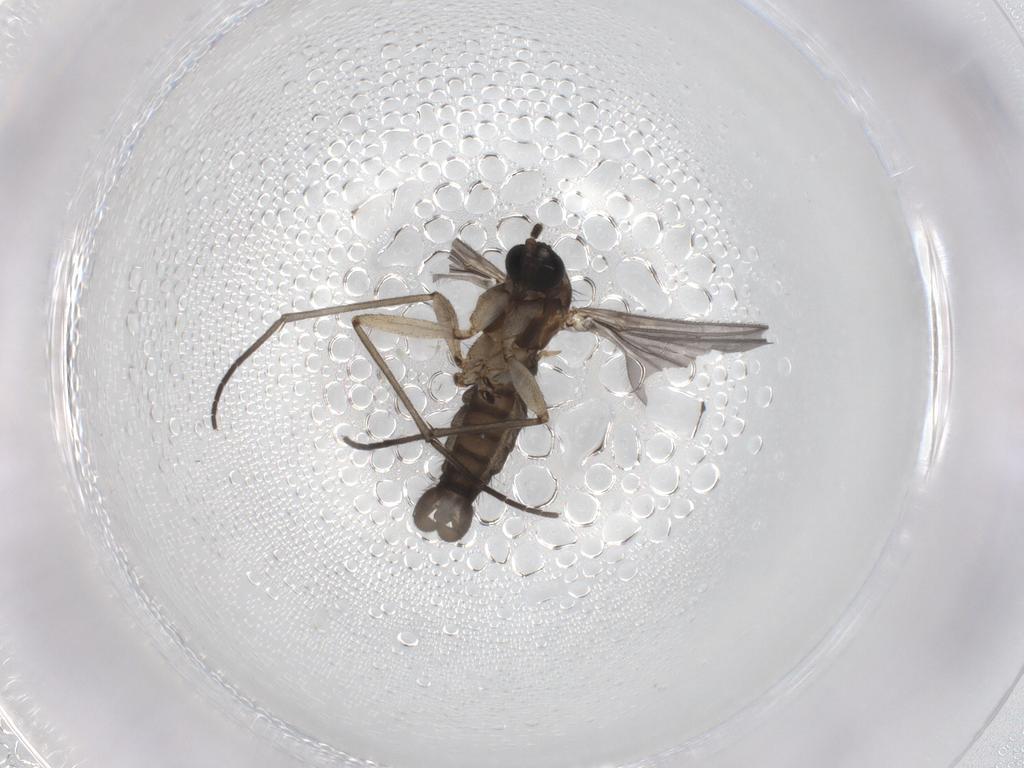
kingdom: Animalia
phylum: Arthropoda
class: Insecta
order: Diptera
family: Sciaridae
